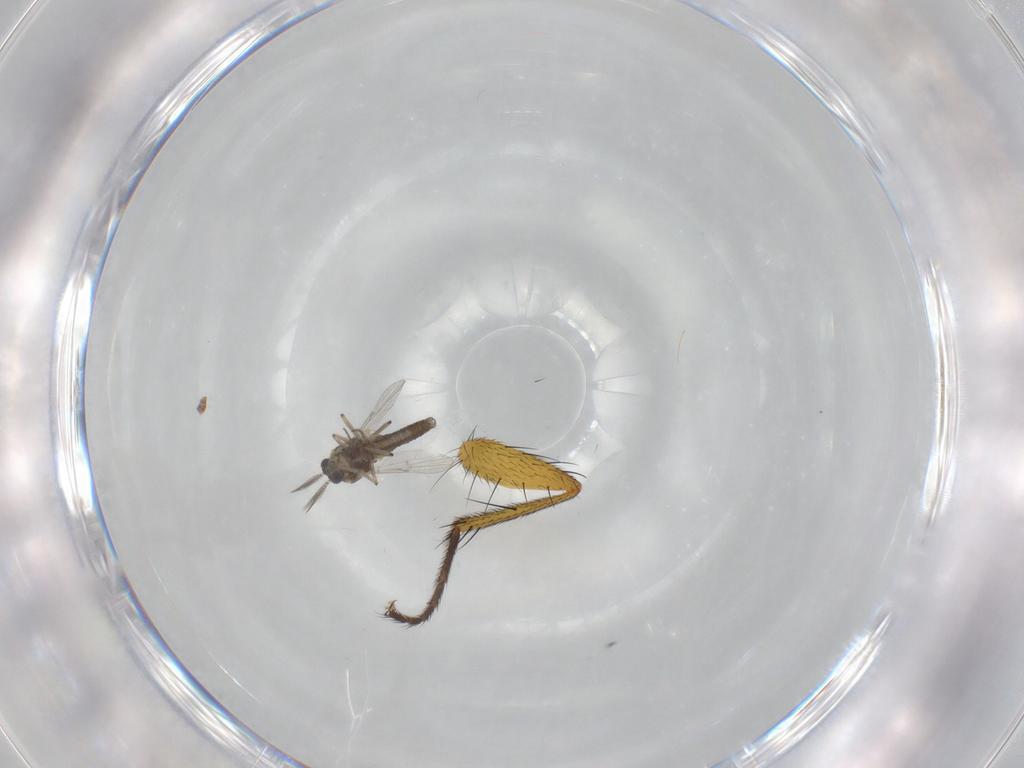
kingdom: Animalia
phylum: Arthropoda
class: Insecta
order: Diptera
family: Ceratopogonidae
